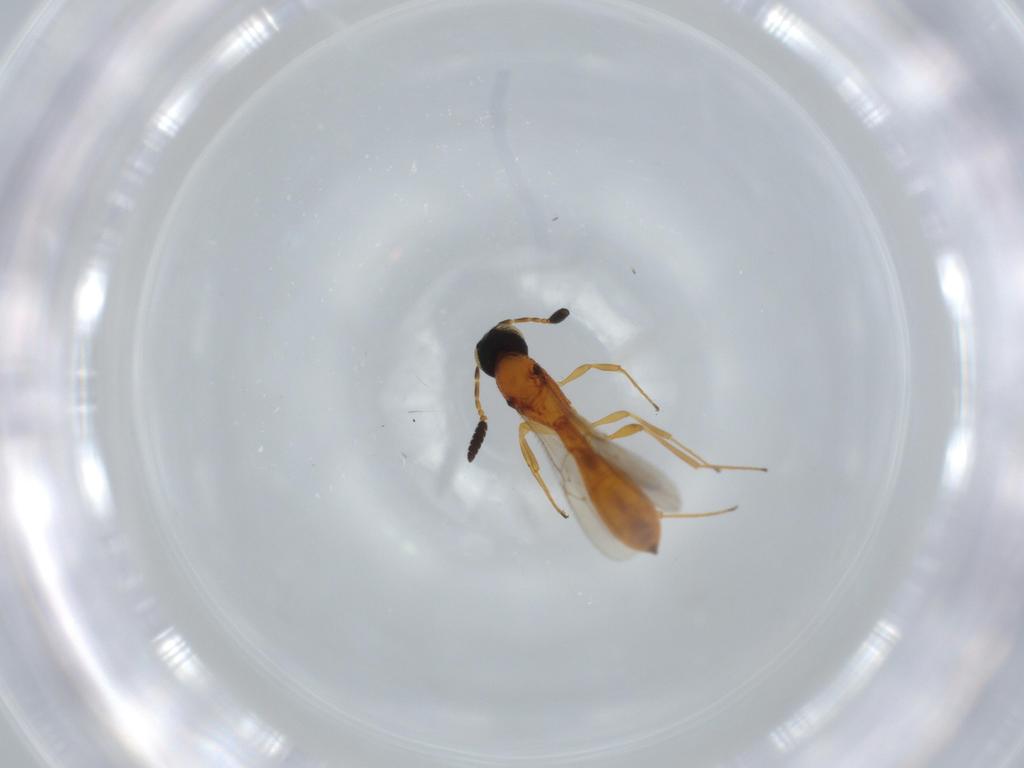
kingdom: Animalia
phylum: Arthropoda
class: Insecta
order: Hymenoptera
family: Scelionidae
